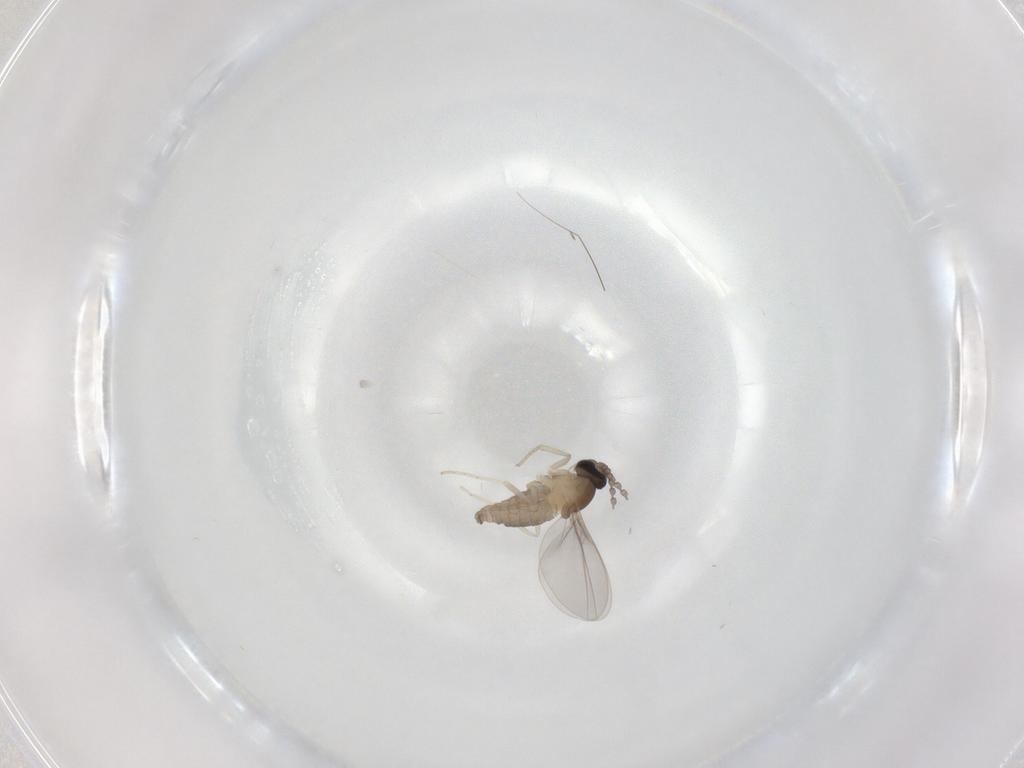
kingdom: Animalia
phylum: Arthropoda
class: Insecta
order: Diptera
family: Cecidomyiidae
